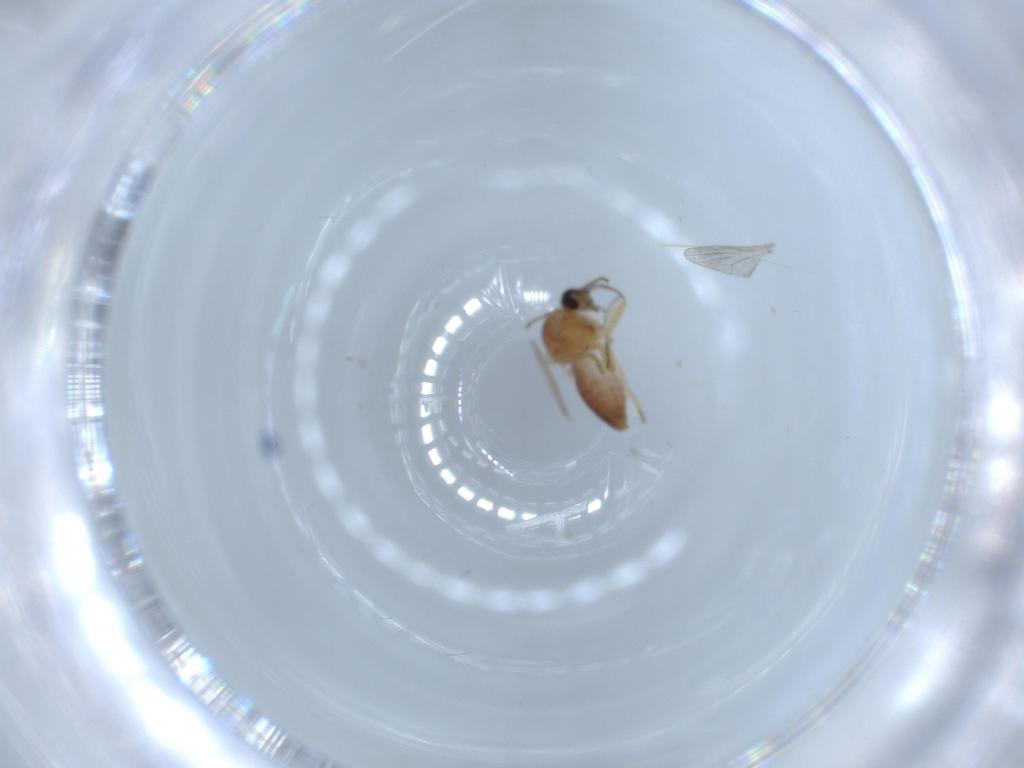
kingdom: Animalia
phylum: Arthropoda
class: Insecta
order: Diptera
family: Ceratopogonidae
